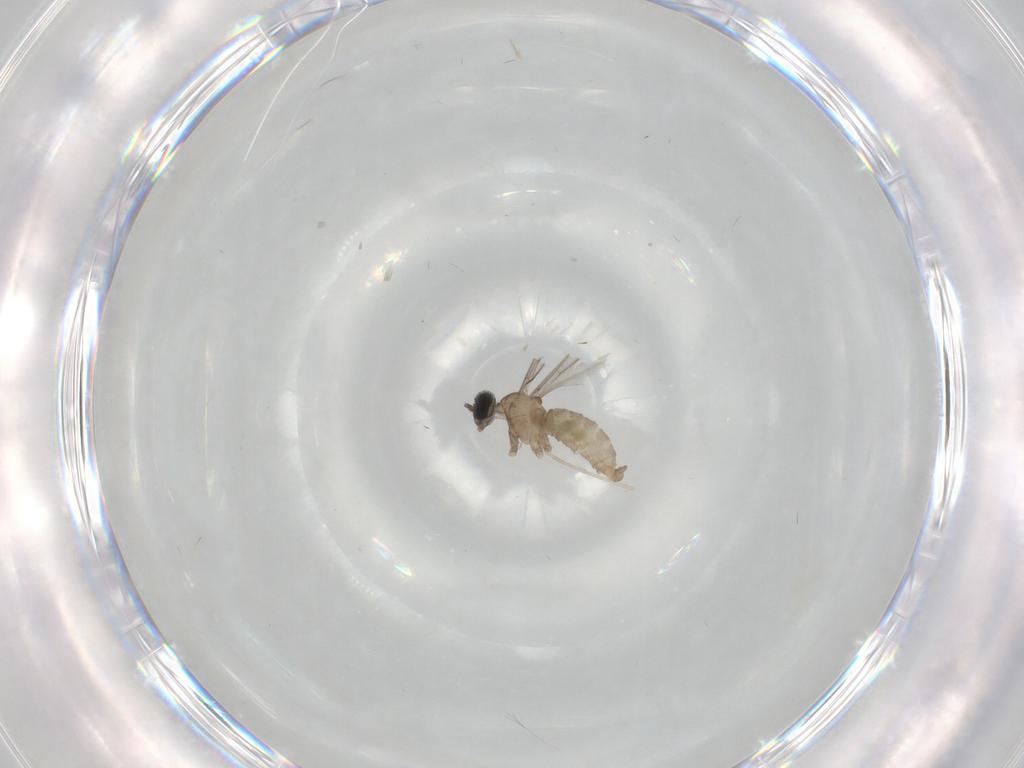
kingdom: Animalia
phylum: Arthropoda
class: Insecta
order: Diptera
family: Cecidomyiidae
